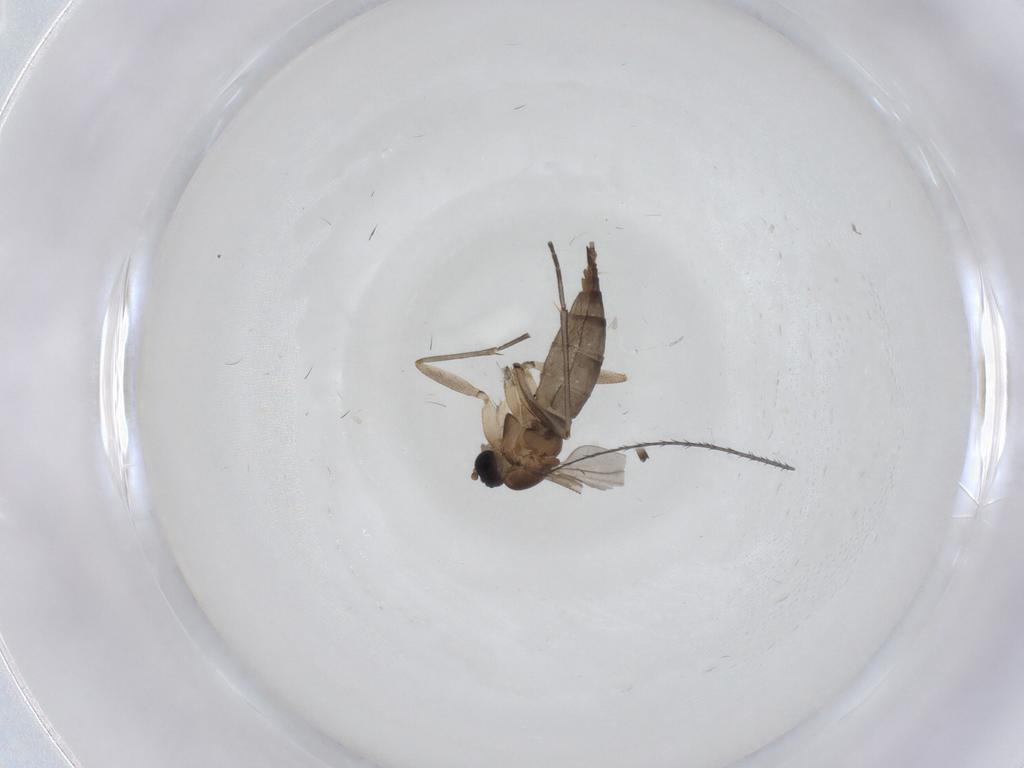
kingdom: Animalia
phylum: Arthropoda
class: Insecta
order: Diptera
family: Sciaridae
